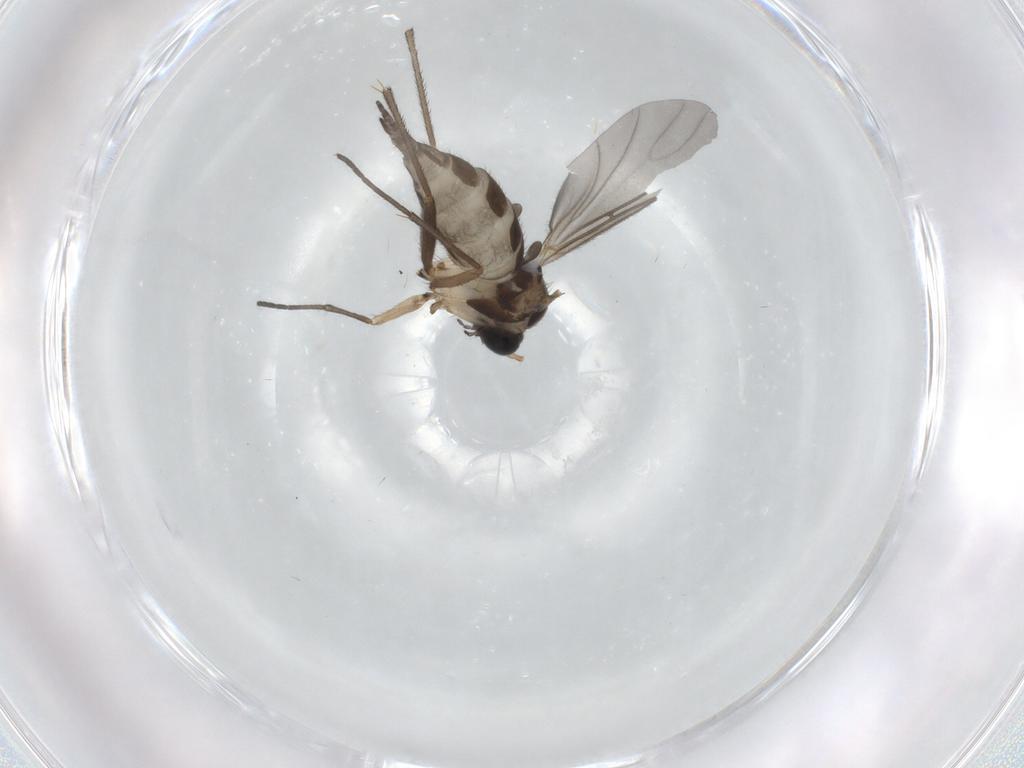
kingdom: Animalia
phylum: Arthropoda
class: Insecta
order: Diptera
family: Sciaridae
